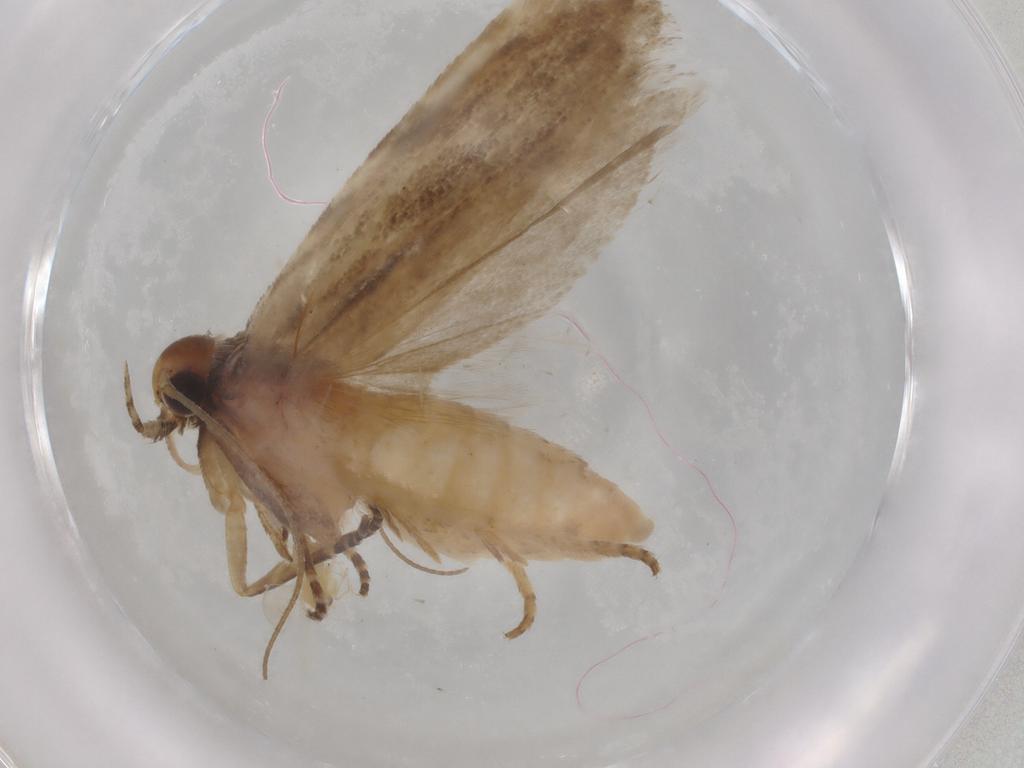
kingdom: Animalia
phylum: Arthropoda
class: Insecta
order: Lepidoptera
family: Gelechiidae
